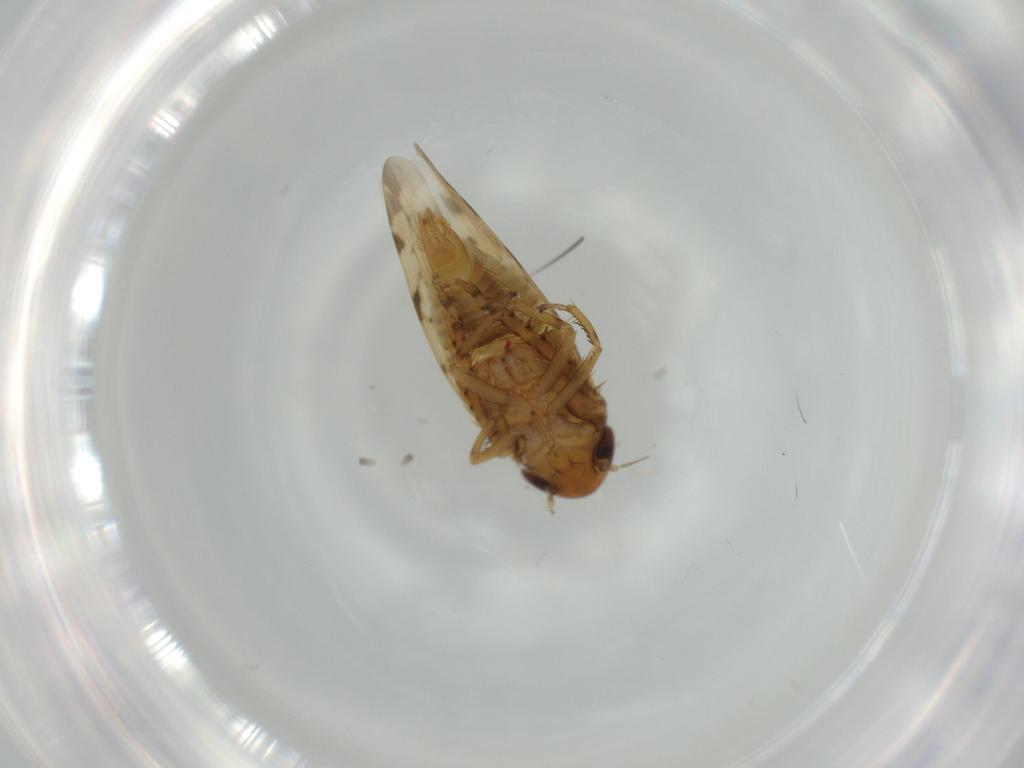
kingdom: Animalia
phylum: Arthropoda
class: Insecta
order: Hemiptera
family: Cicadellidae
